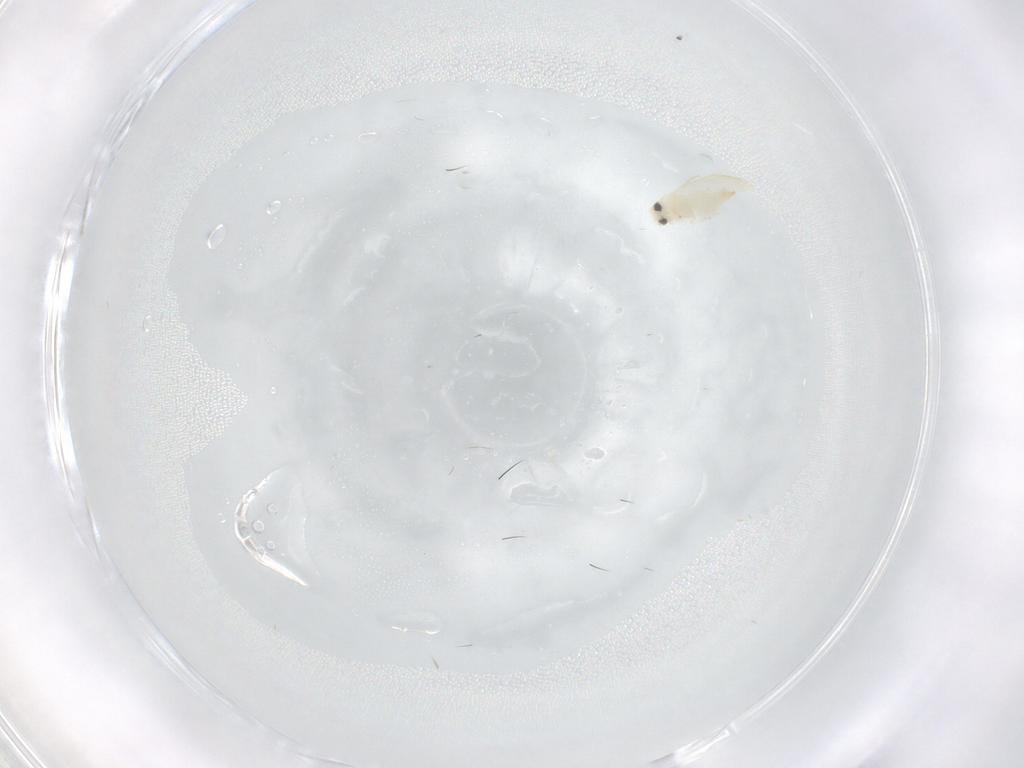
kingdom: Animalia
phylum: Arthropoda
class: Insecta
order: Hemiptera
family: Aleyrodidae
